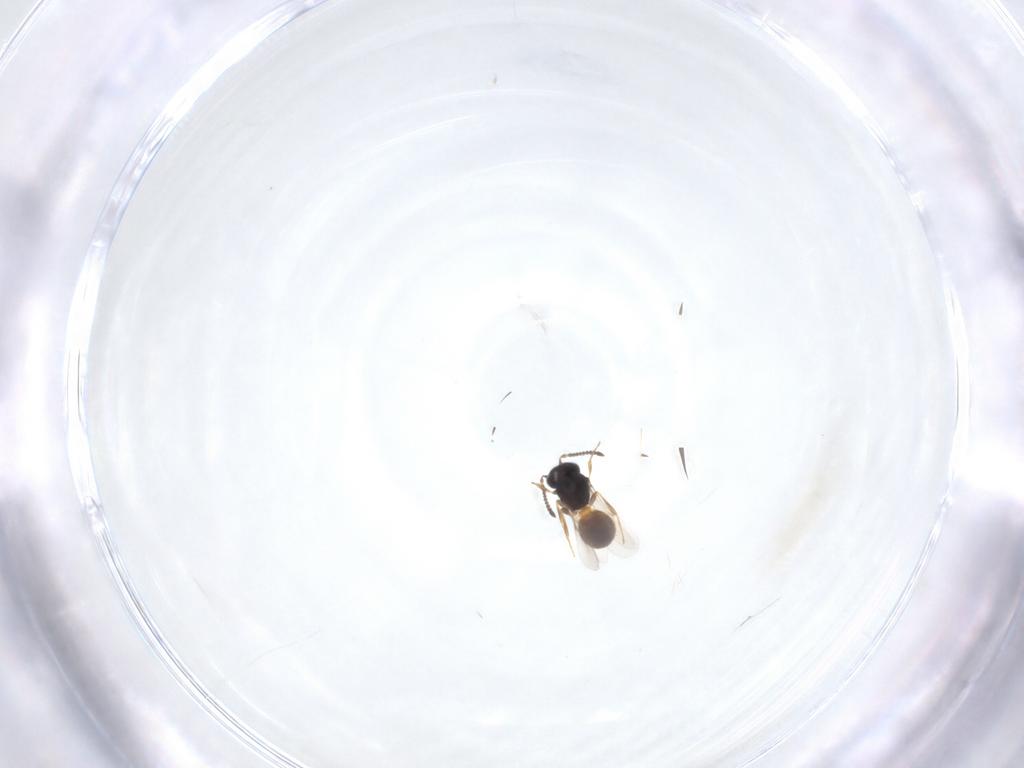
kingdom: Animalia
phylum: Arthropoda
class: Insecta
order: Hymenoptera
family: Scelionidae
